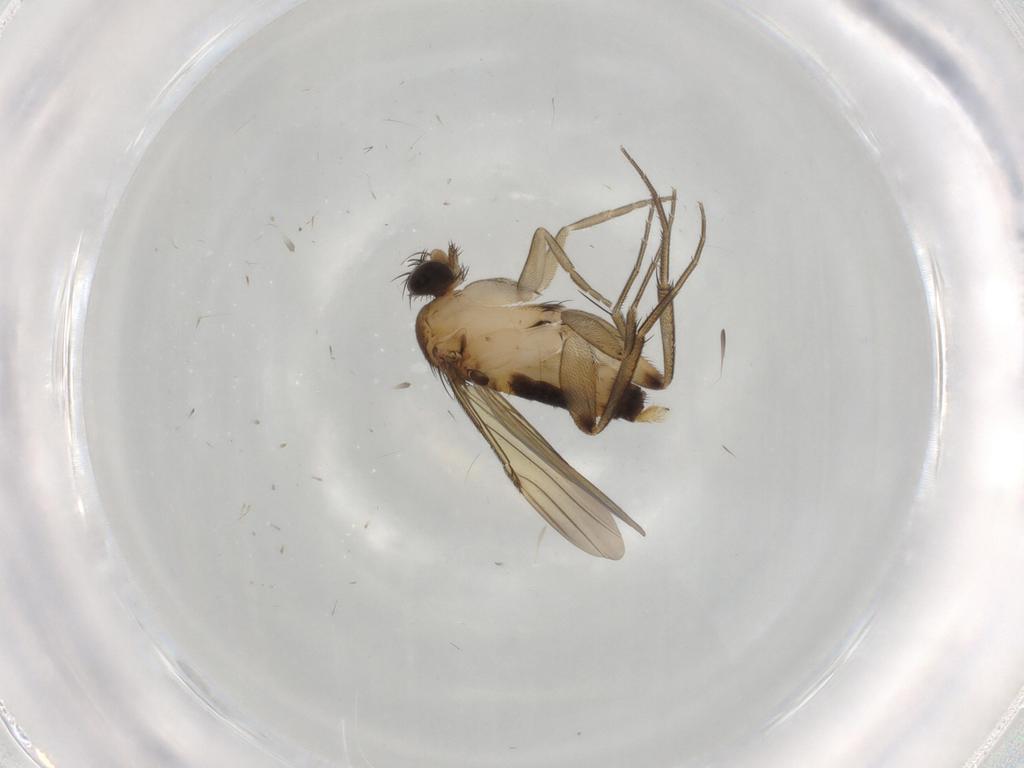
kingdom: Animalia
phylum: Arthropoda
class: Insecta
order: Diptera
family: Phoridae
